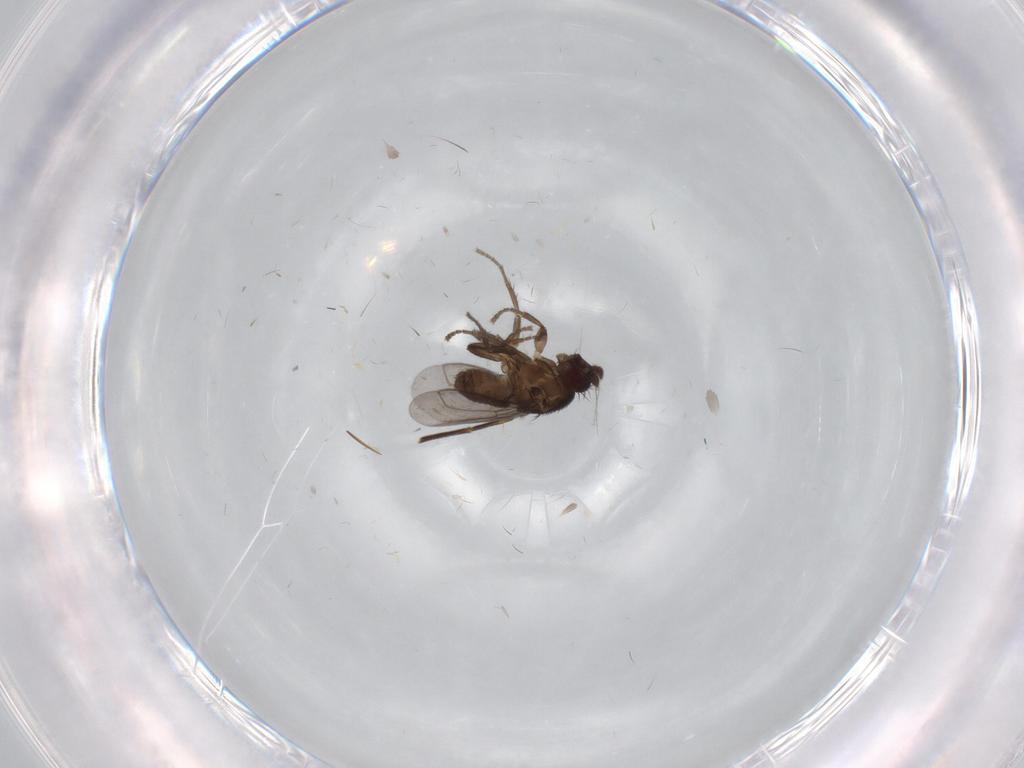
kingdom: Animalia
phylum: Arthropoda
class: Insecta
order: Diptera
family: Phoridae
